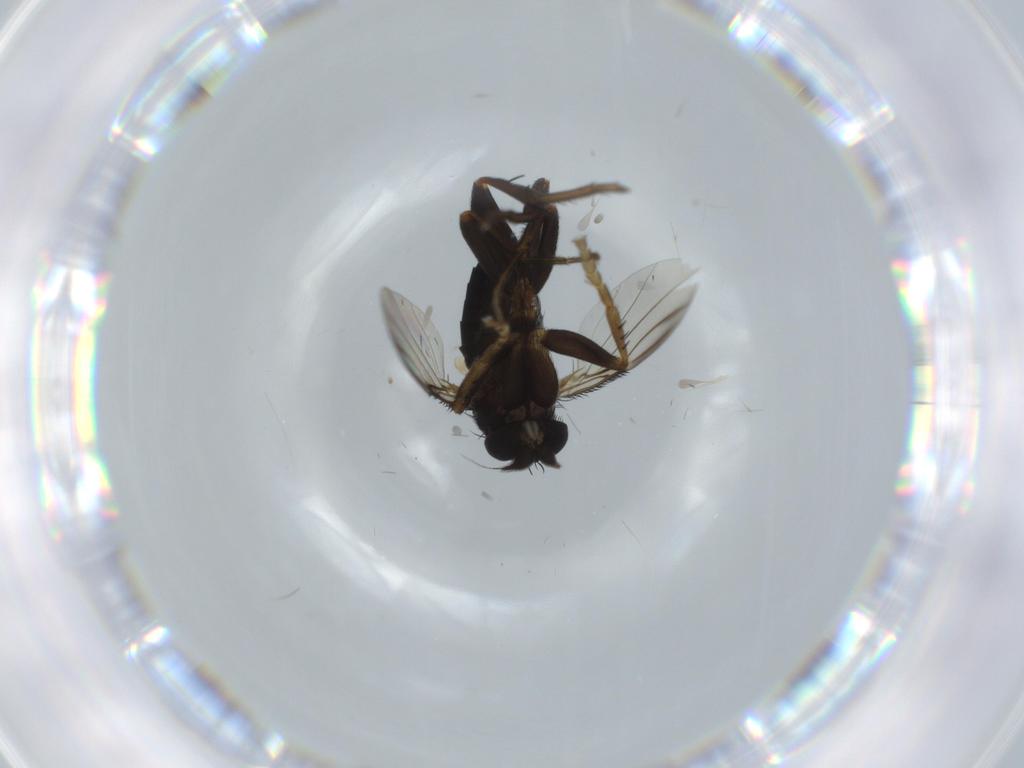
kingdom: Animalia
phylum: Arthropoda
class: Insecta
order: Diptera
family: Phoridae
